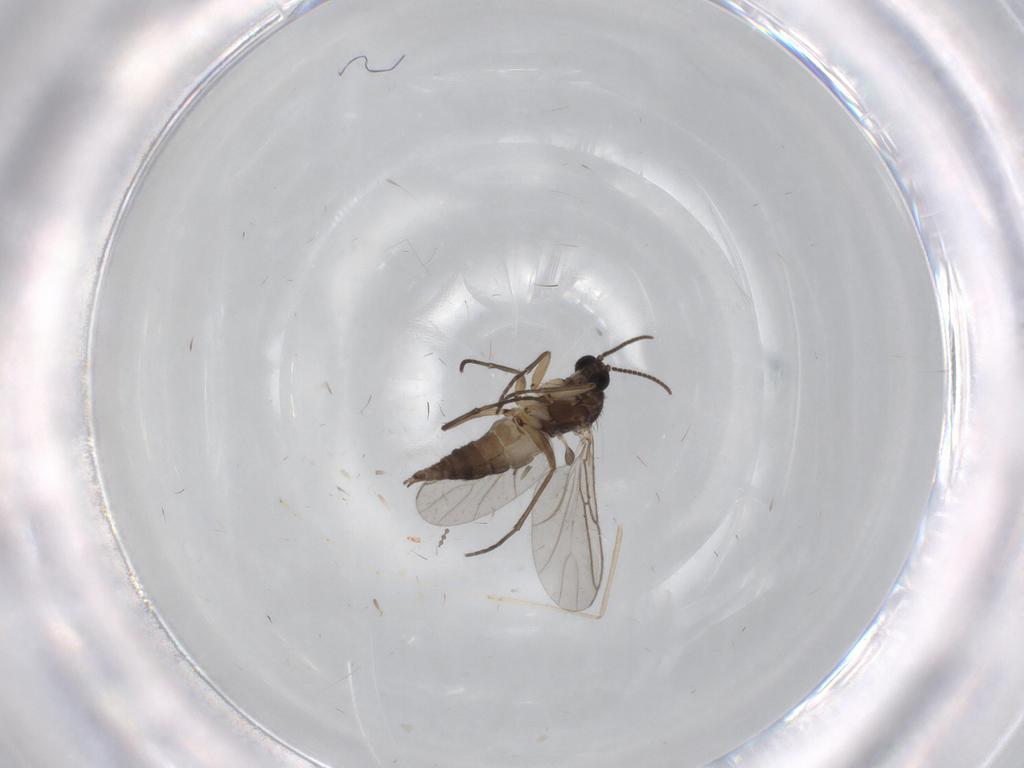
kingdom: Animalia
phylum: Arthropoda
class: Insecta
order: Diptera
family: Sciaridae
